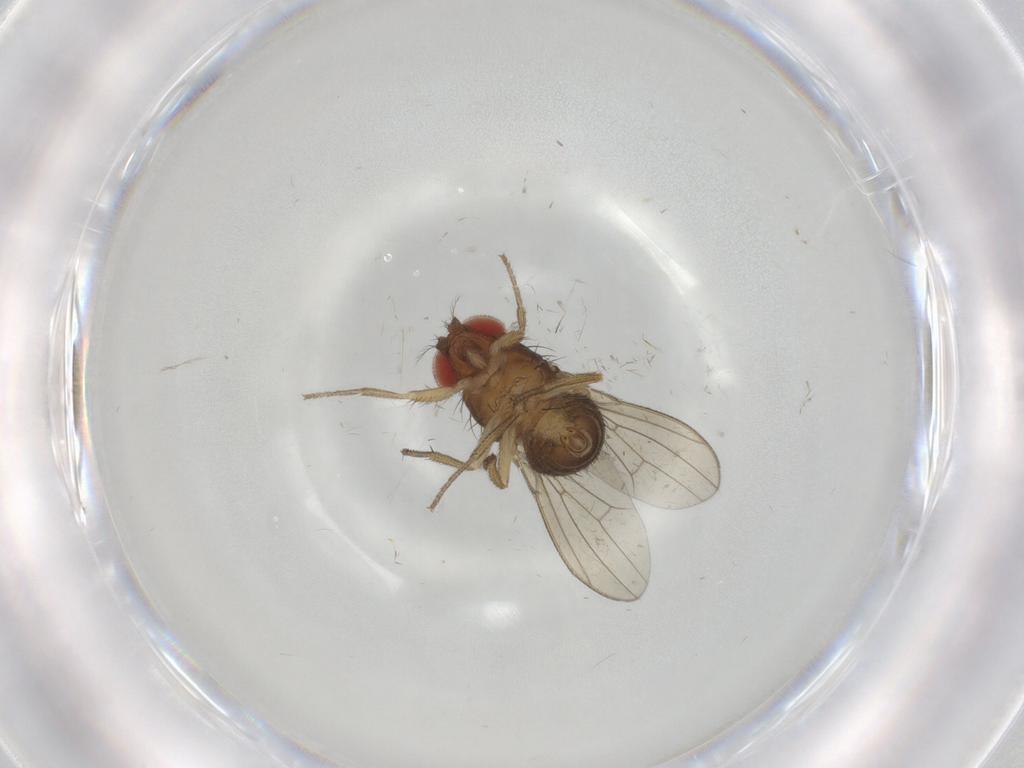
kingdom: Animalia
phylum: Arthropoda
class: Insecta
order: Diptera
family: Drosophilidae
